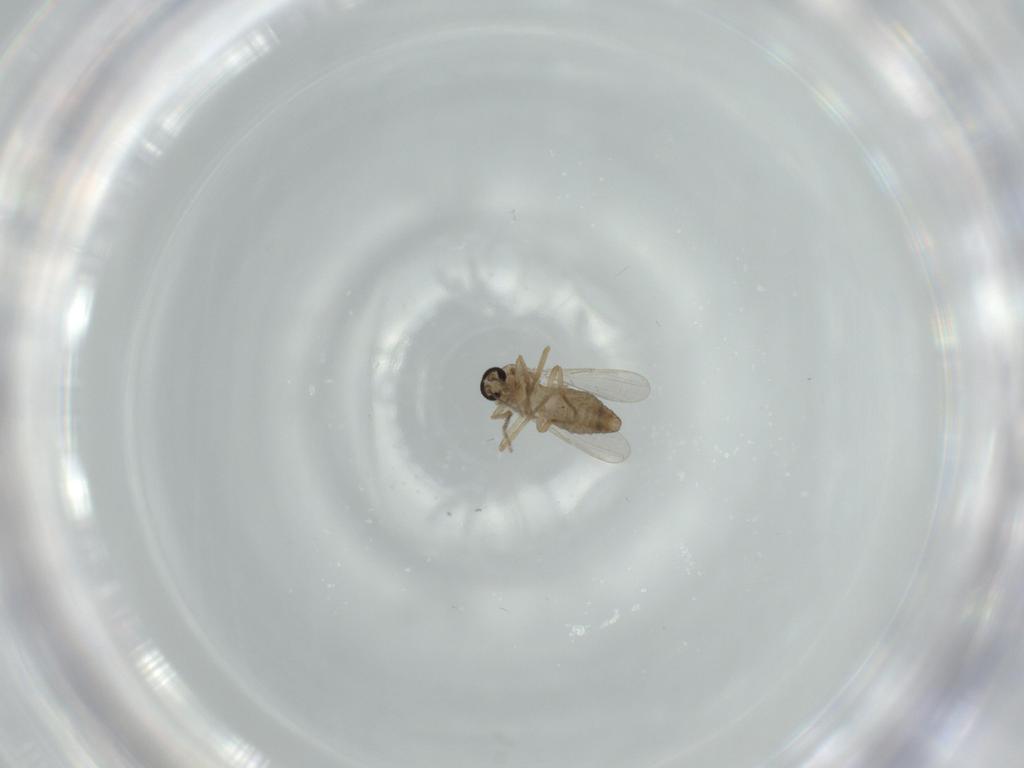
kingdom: Animalia
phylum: Arthropoda
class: Insecta
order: Diptera
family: Ceratopogonidae
